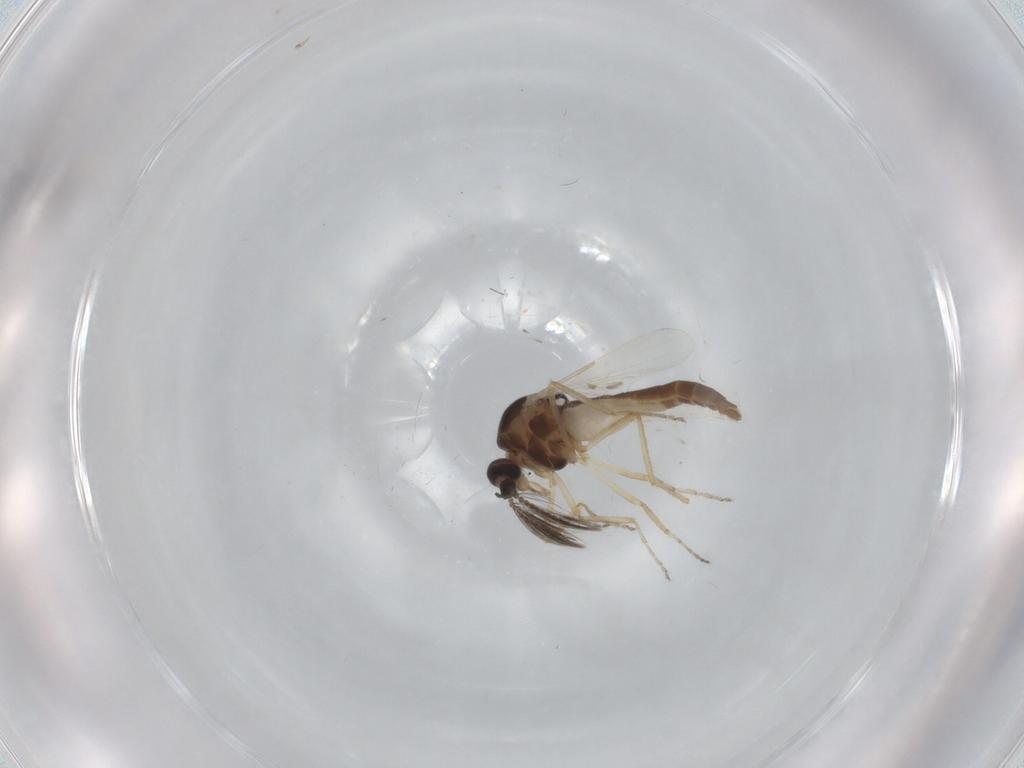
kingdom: Animalia
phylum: Arthropoda
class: Insecta
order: Diptera
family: Ceratopogonidae
